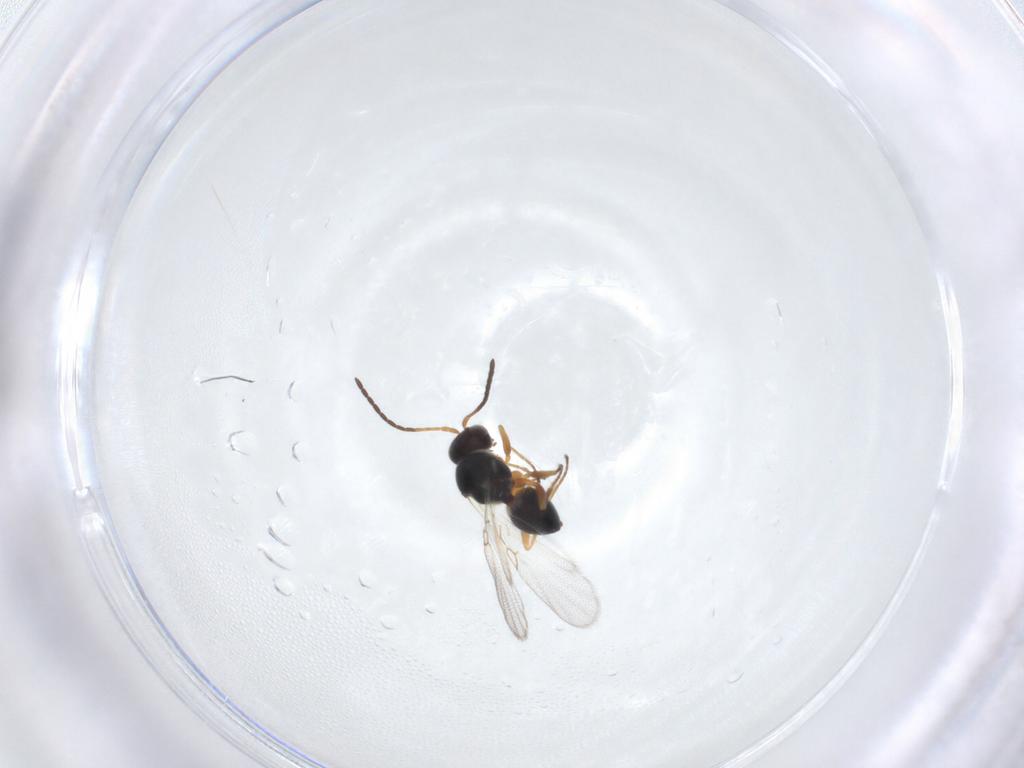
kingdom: Animalia
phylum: Arthropoda
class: Insecta
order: Hymenoptera
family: Figitidae
